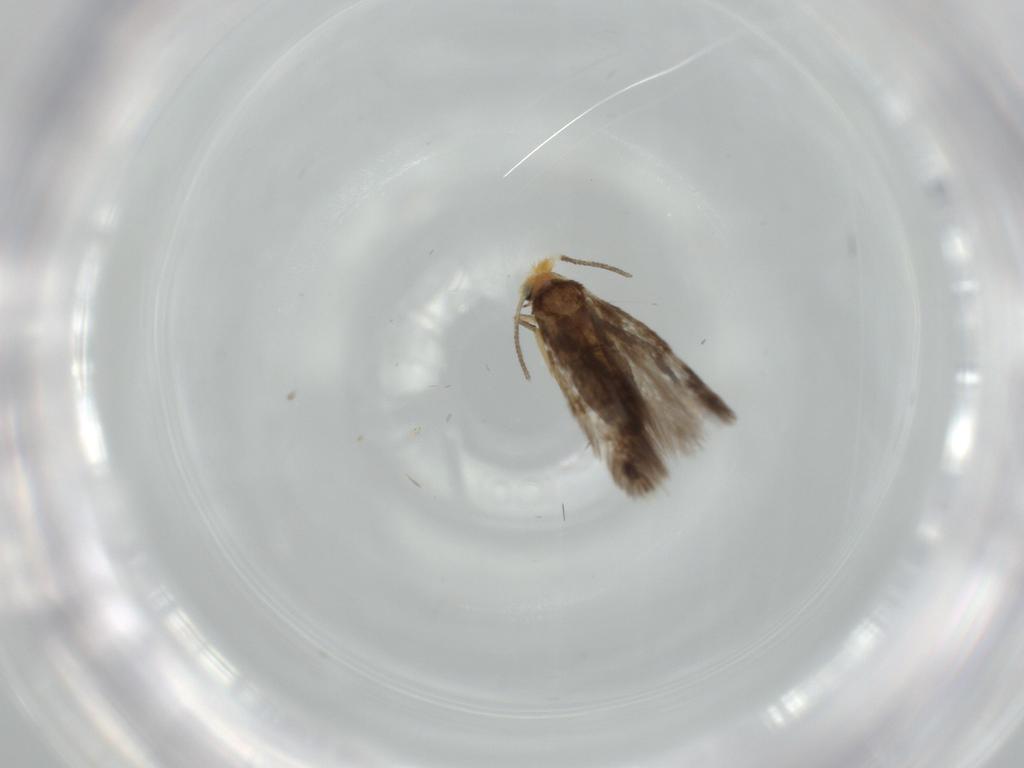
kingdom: Animalia
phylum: Arthropoda
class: Insecta
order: Lepidoptera
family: Nepticulidae
